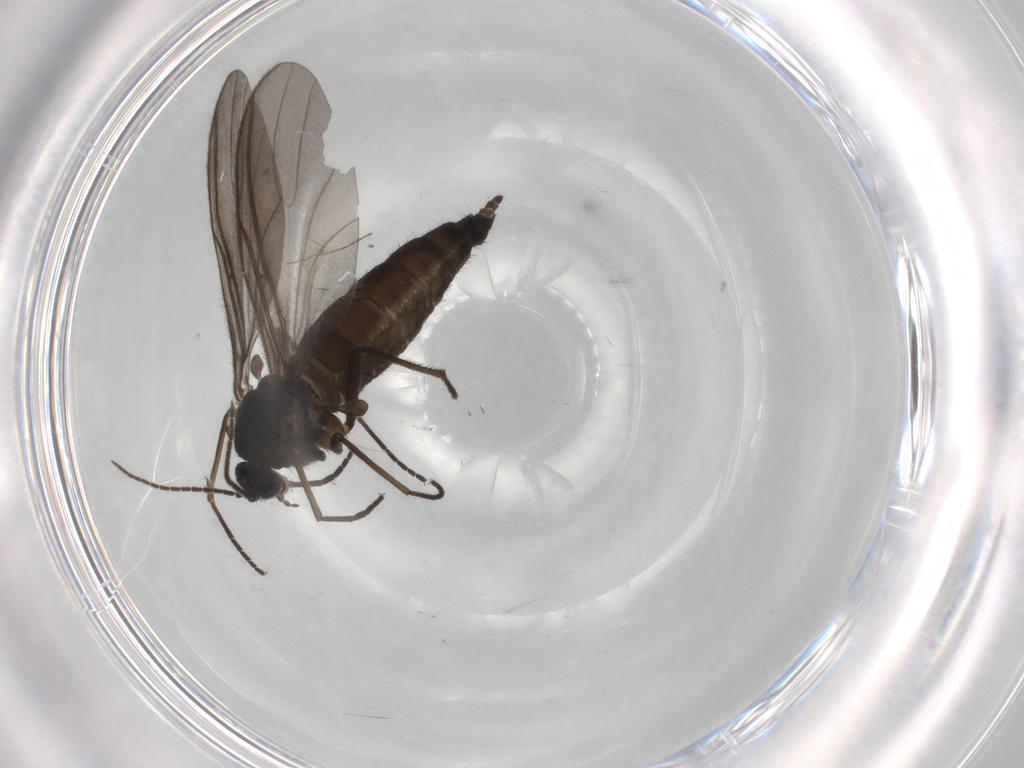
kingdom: Animalia
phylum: Arthropoda
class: Insecta
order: Diptera
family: Sciaridae
